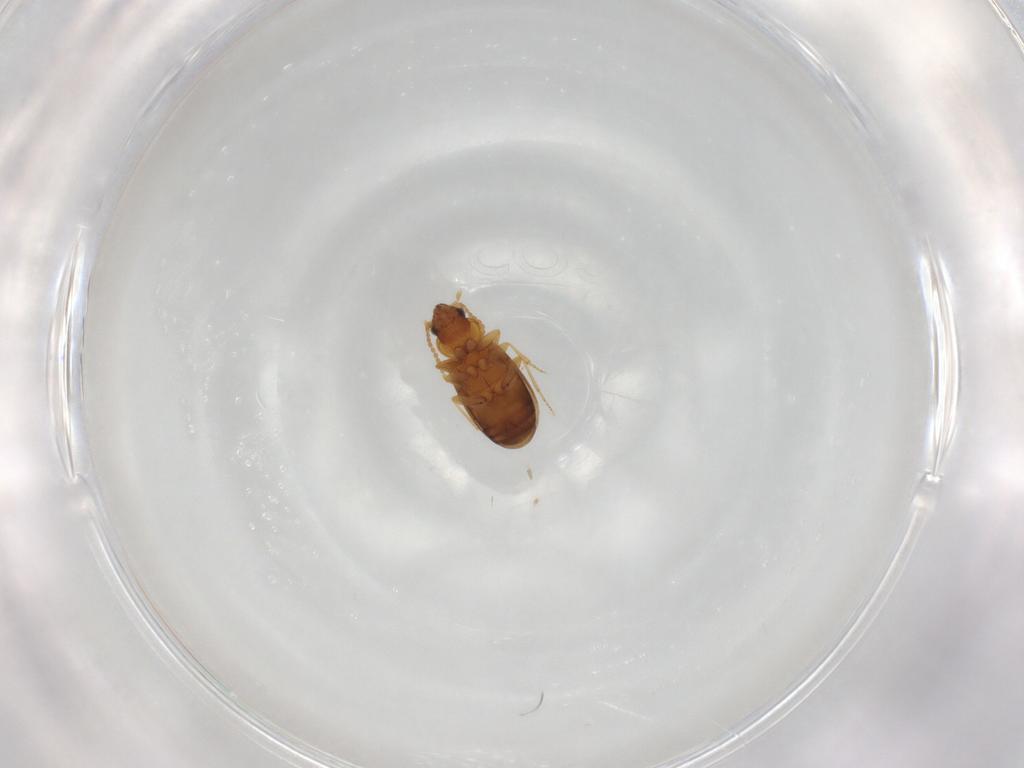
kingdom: Animalia
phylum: Arthropoda
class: Insecta
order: Coleoptera
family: Carabidae
